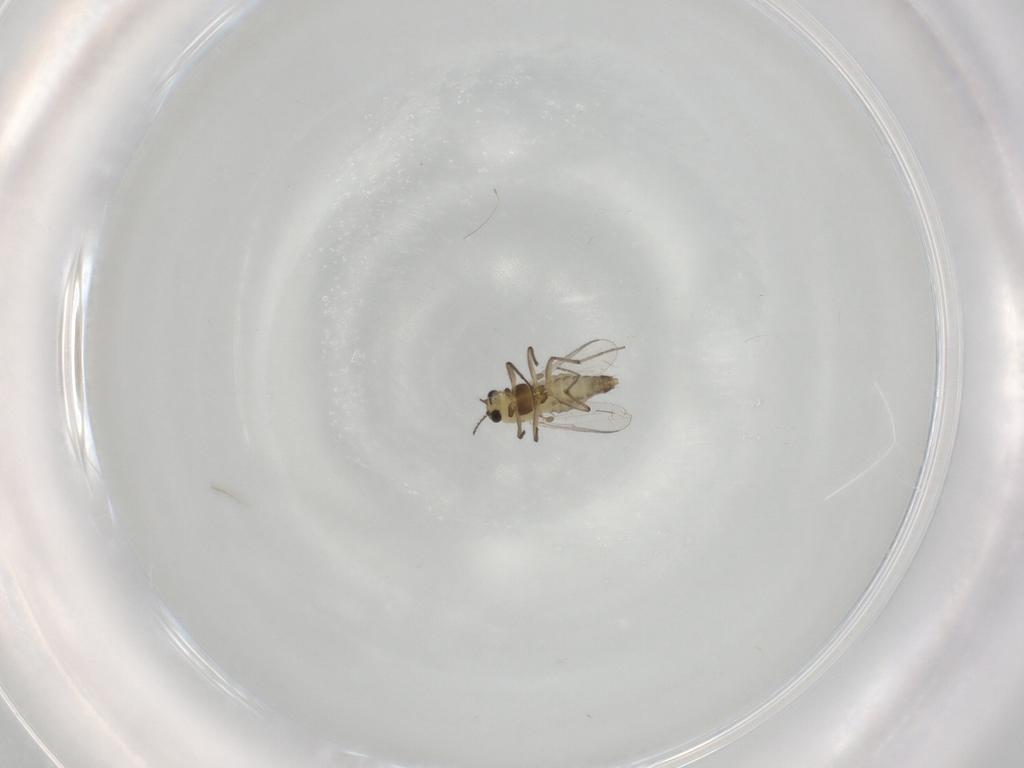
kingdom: Animalia
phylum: Arthropoda
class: Insecta
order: Diptera
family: Chironomidae
